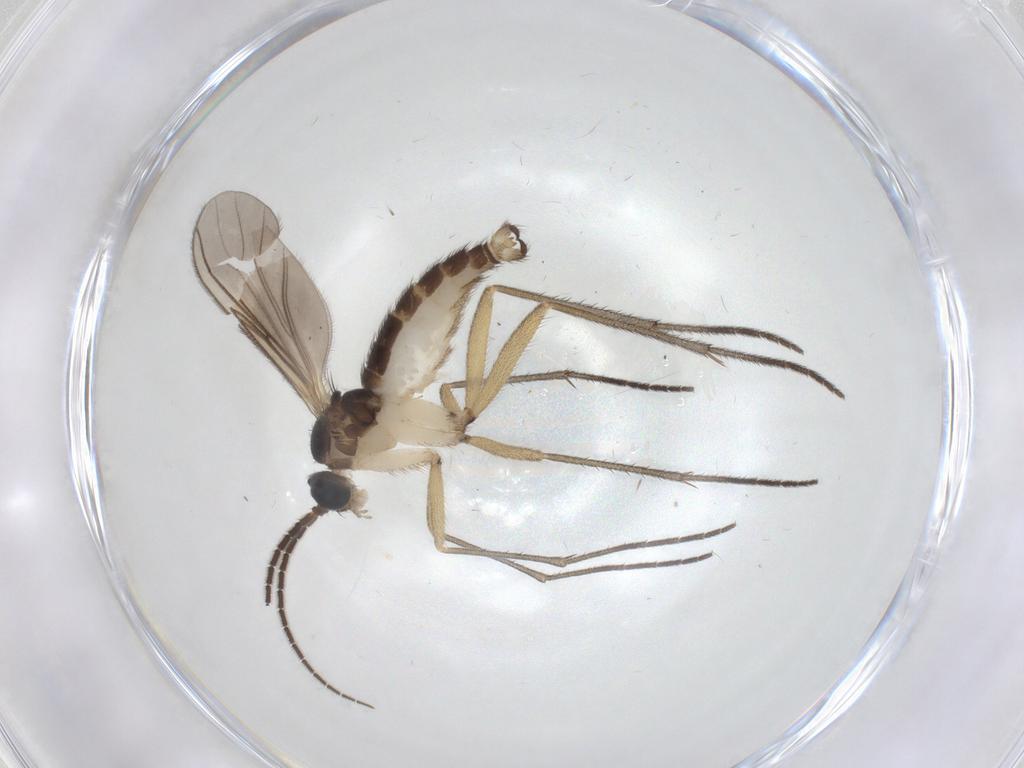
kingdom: Animalia
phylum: Arthropoda
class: Insecta
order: Diptera
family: Sciaridae
